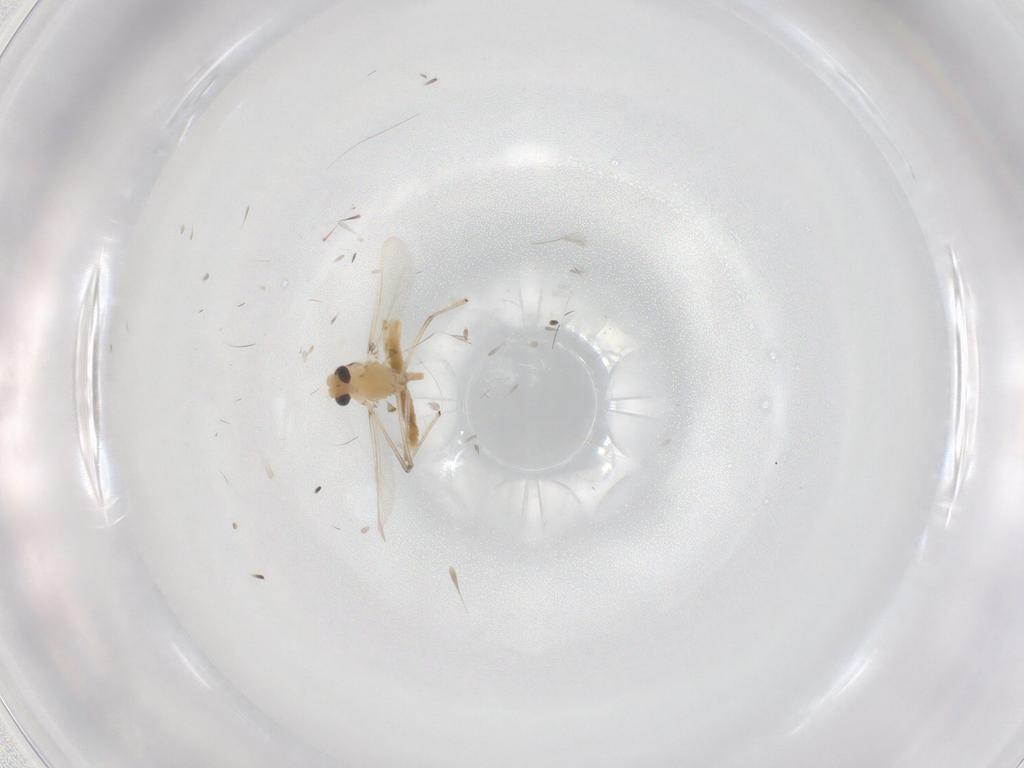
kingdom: Animalia
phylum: Arthropoda
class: Insecta
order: Diptera
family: Chironomidae
